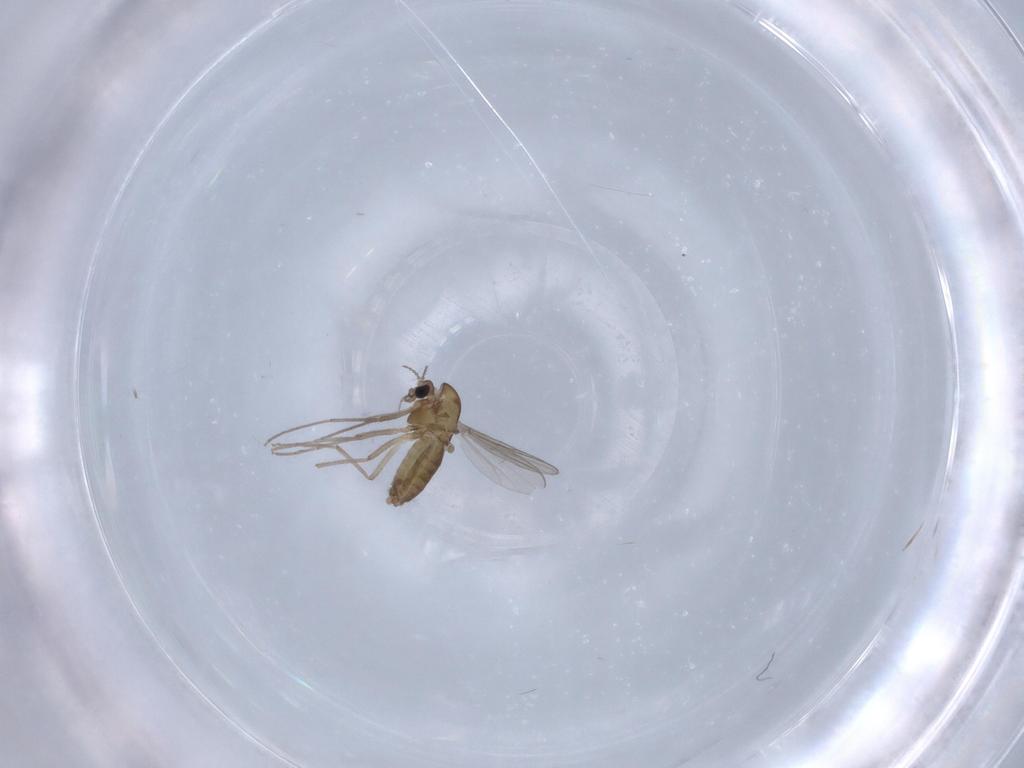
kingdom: Animalia
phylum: Arthropoda
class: Insecta
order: Diptera
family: Chironomidae
